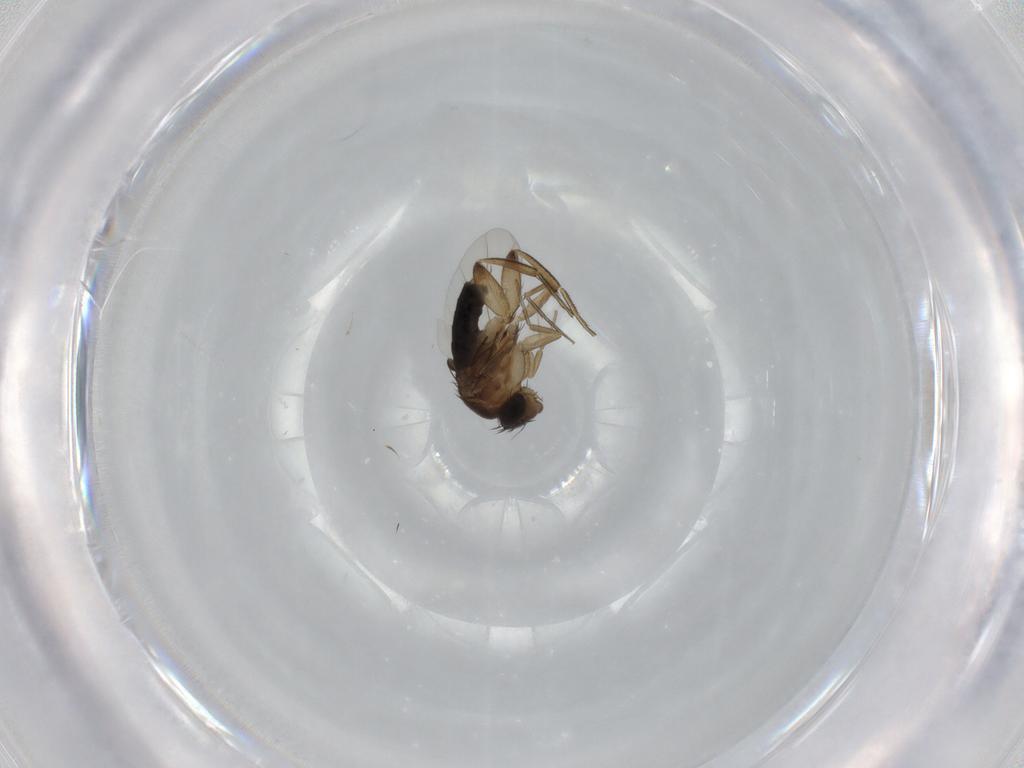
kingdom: Animalia
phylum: Arthropoda
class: Insecta
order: Diptera
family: Phoridae
